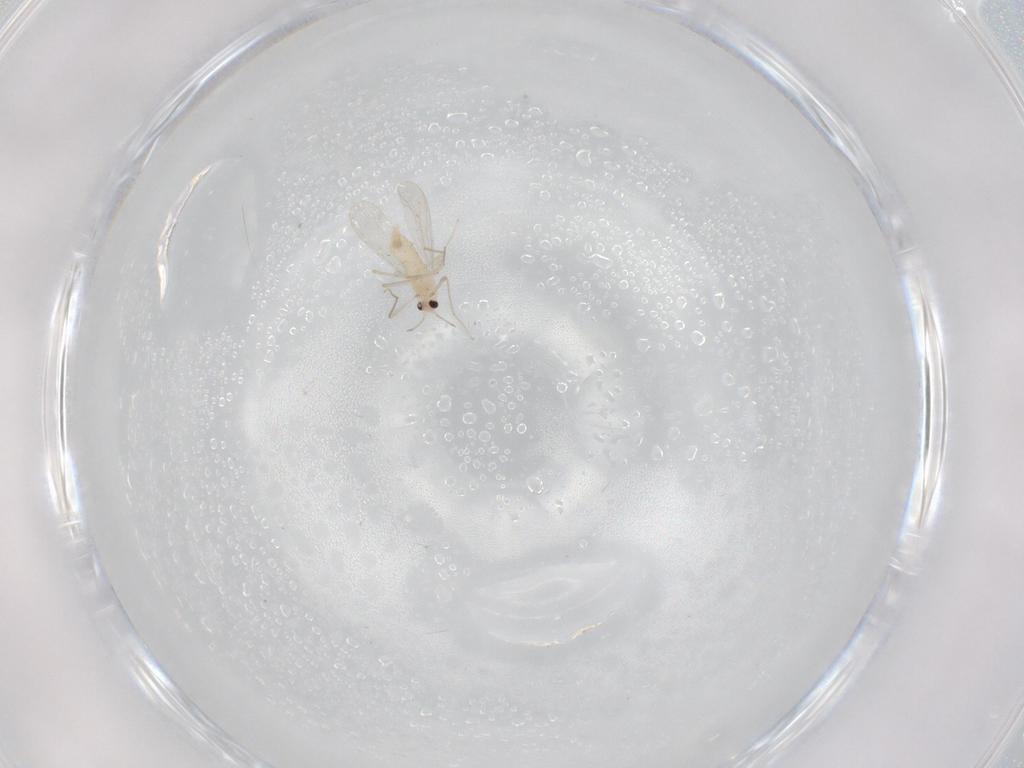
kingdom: Animalia
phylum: Arthropoda
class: Insecta
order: Diptera
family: Chironomidae
